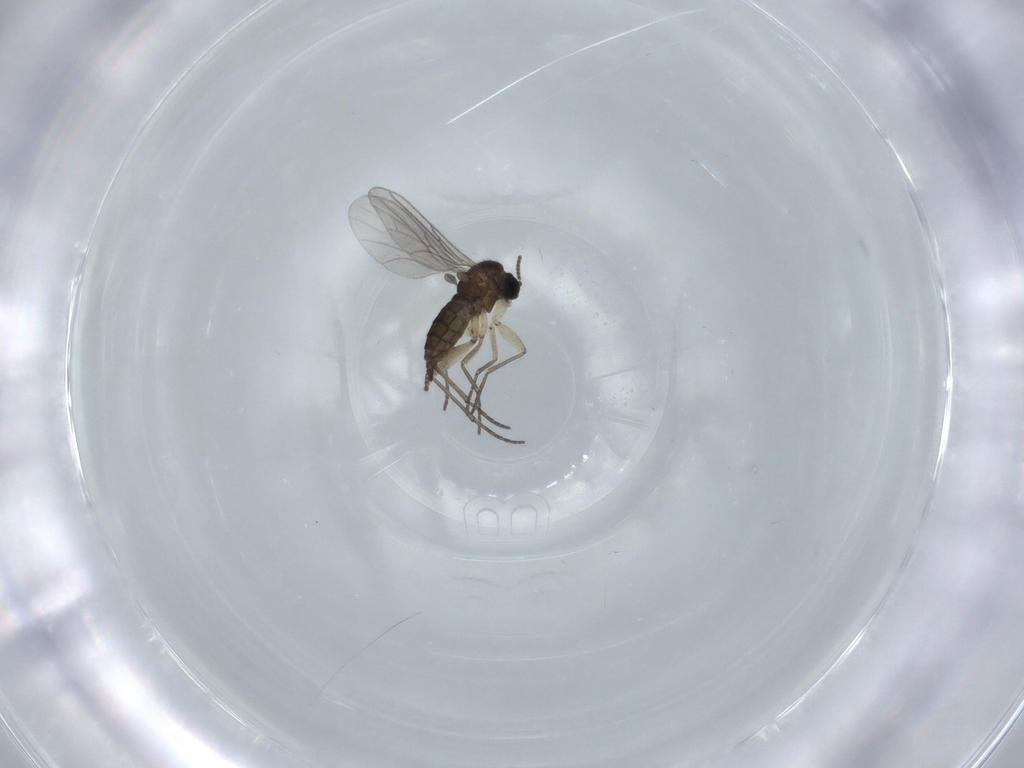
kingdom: Animalia
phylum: Arthropoda
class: Insecta
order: Diptera
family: Sciaridae
